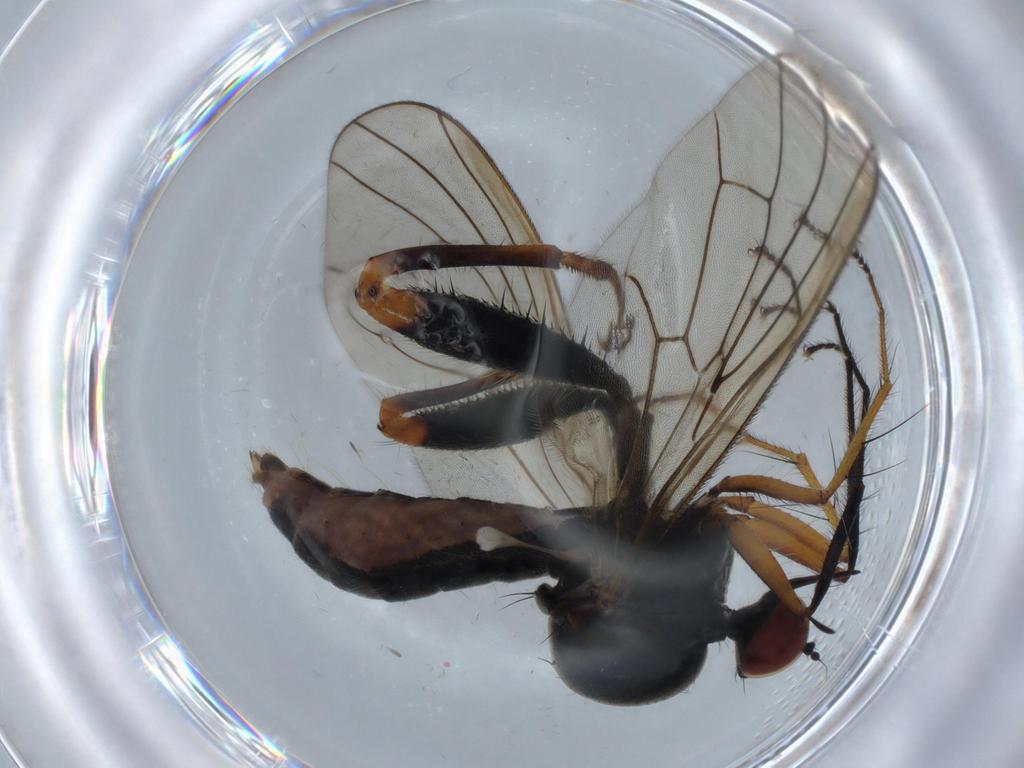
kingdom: Animalia
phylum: Arthropoda
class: Insecta
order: Diptera
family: Hybotidae
